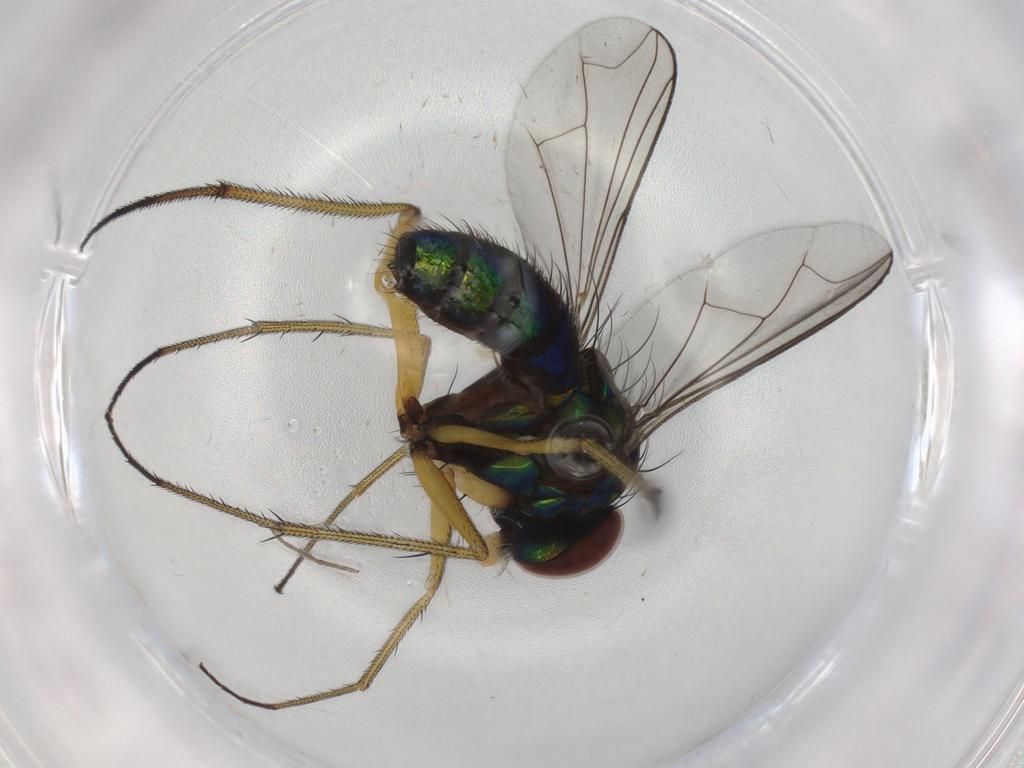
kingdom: Animalia
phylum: Arthropoda
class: Insecta
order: Diptera
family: Dolichopodidae
